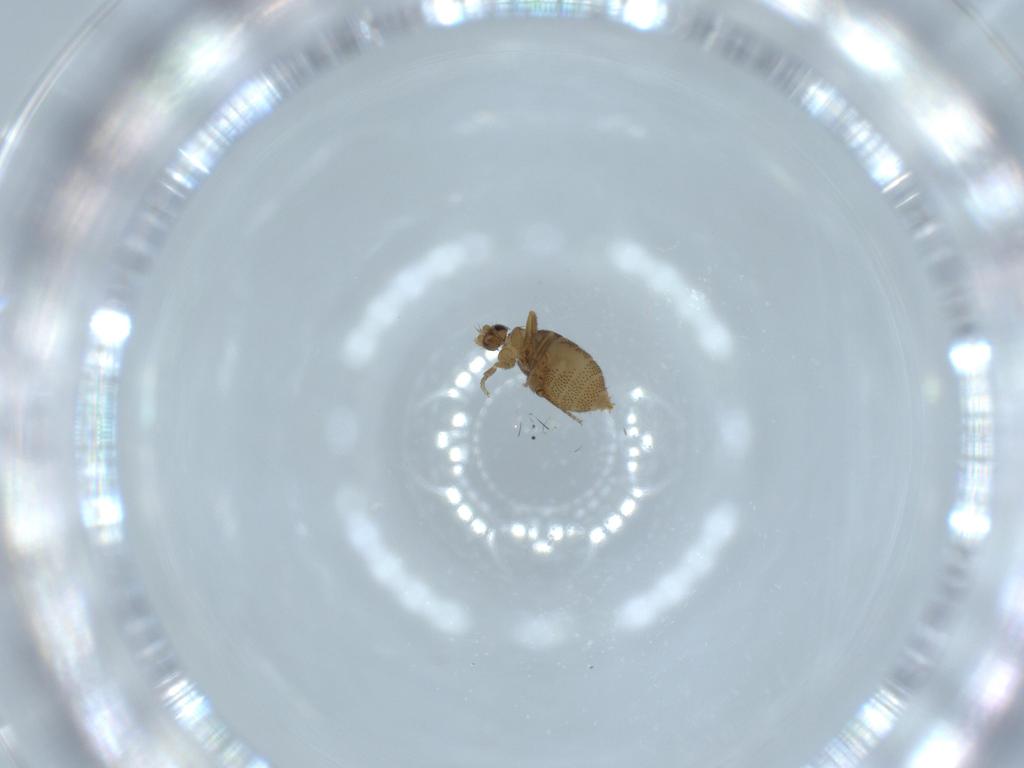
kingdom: Animalia
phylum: Arthropoda
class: Insecta
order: Diptera
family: Phoridae
